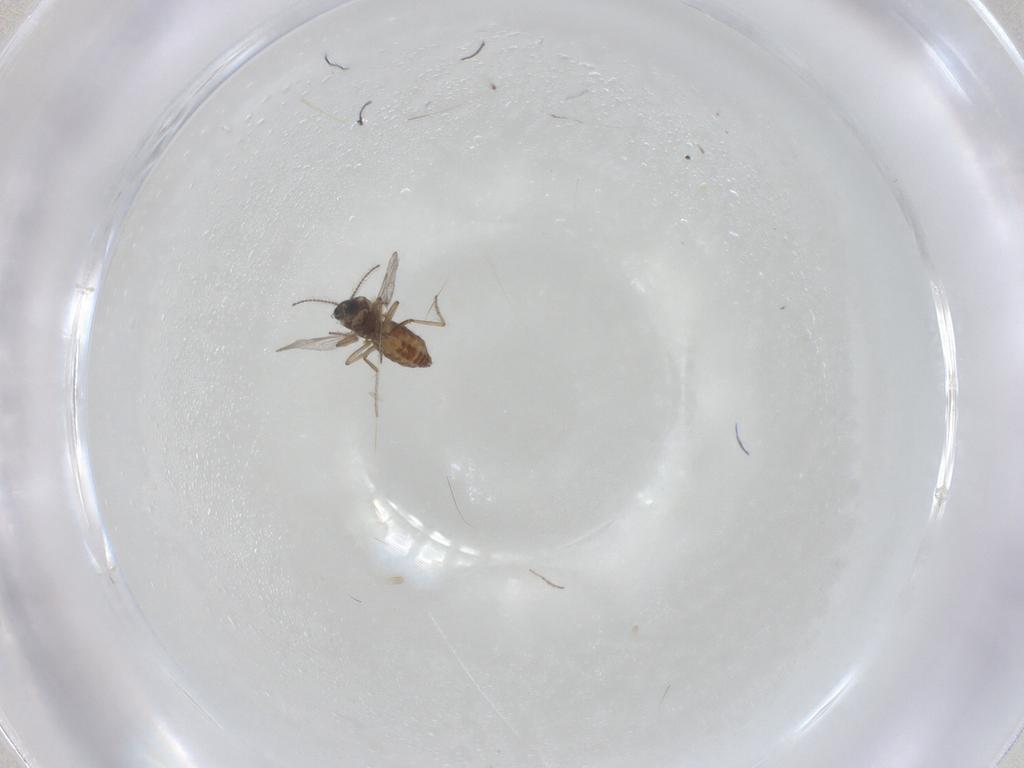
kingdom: Animalia
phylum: Arthropoda
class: Insecta
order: Diptera
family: Ceratopogonidae
